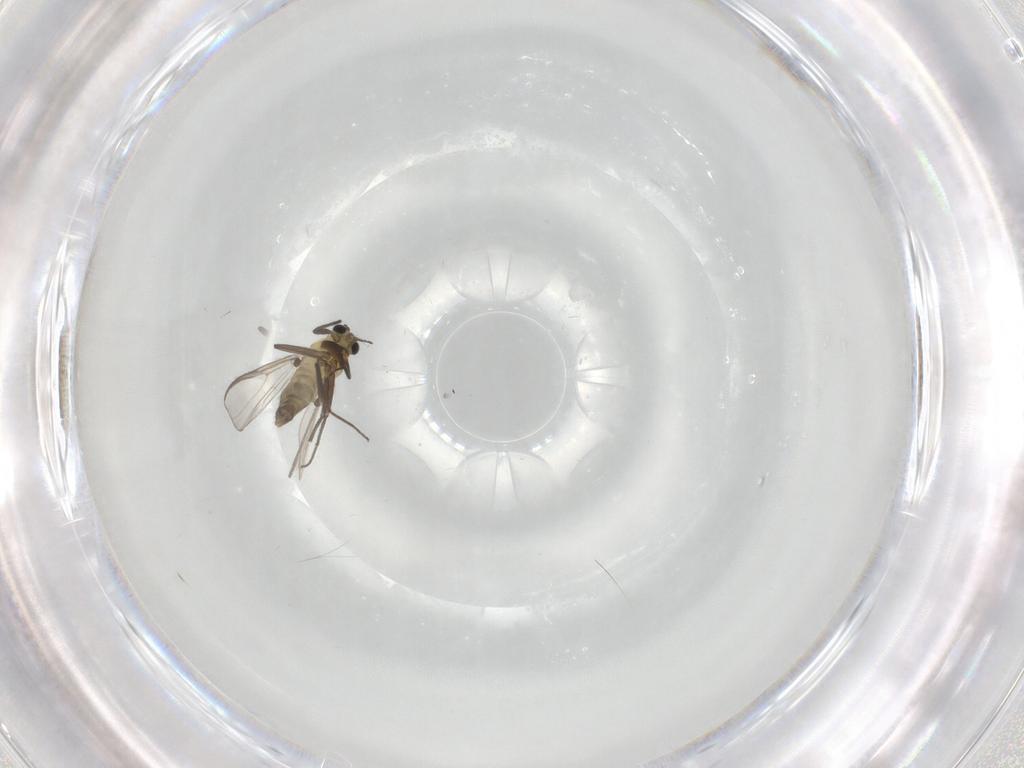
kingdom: Animalia
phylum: Arthropoda
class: Insecta
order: Diptera
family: Chironomidae
